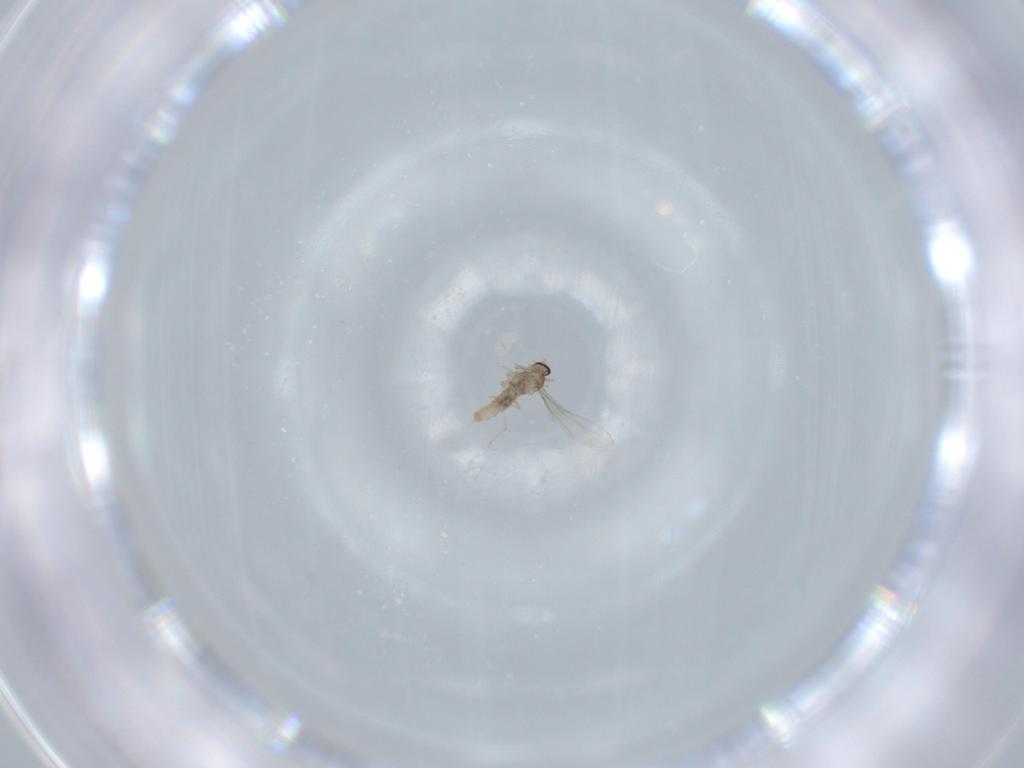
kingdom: Animalia
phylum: Arthropoda
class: Insecta
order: Diptera
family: Cecidomyiidae
